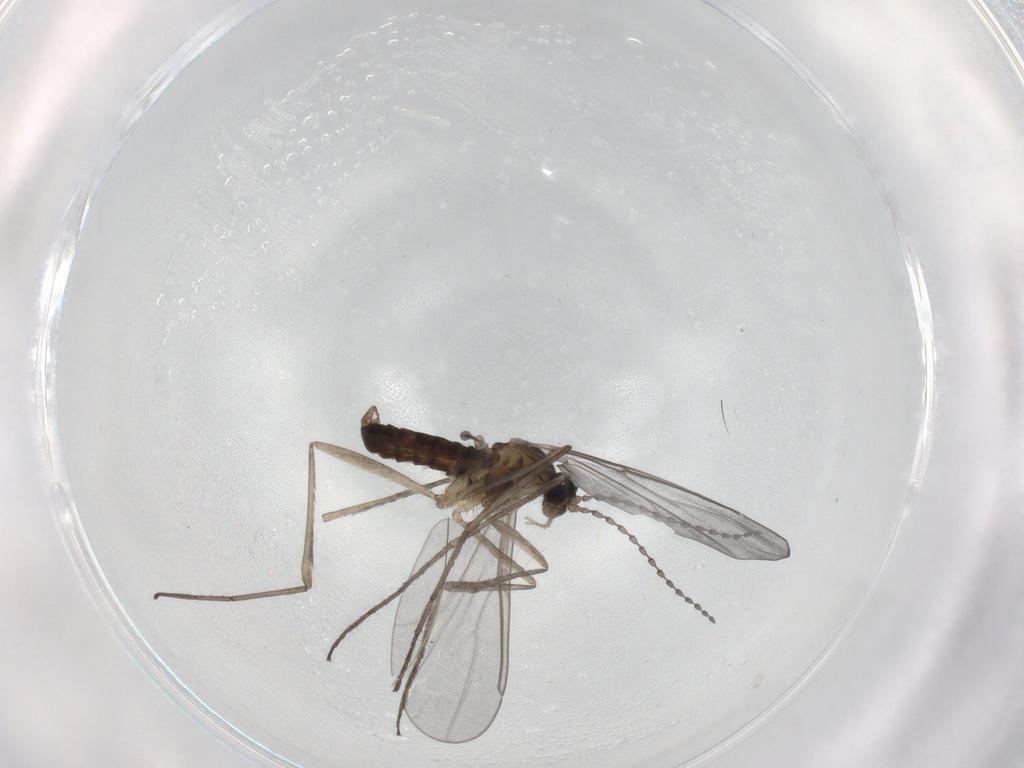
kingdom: Animalia
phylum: Arthropoda
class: Insecta
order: Diptera
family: Cecidomyiidae
